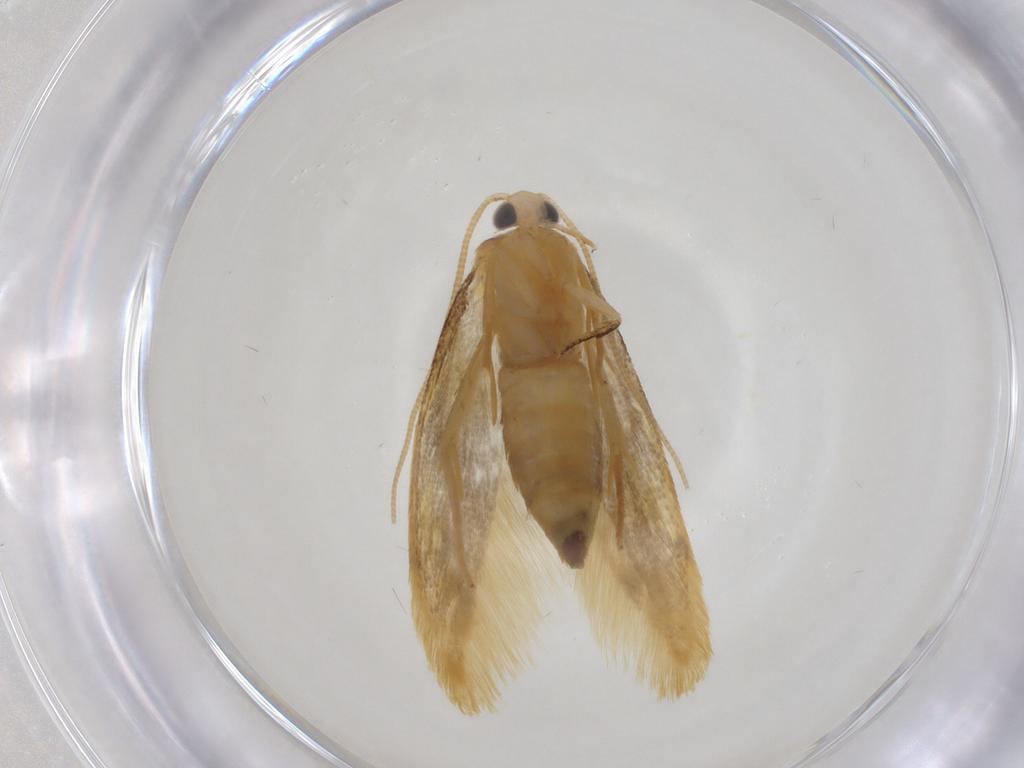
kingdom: Animalia
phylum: Arthropoda
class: Insecta
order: Lepidoptera
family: Tineidae
